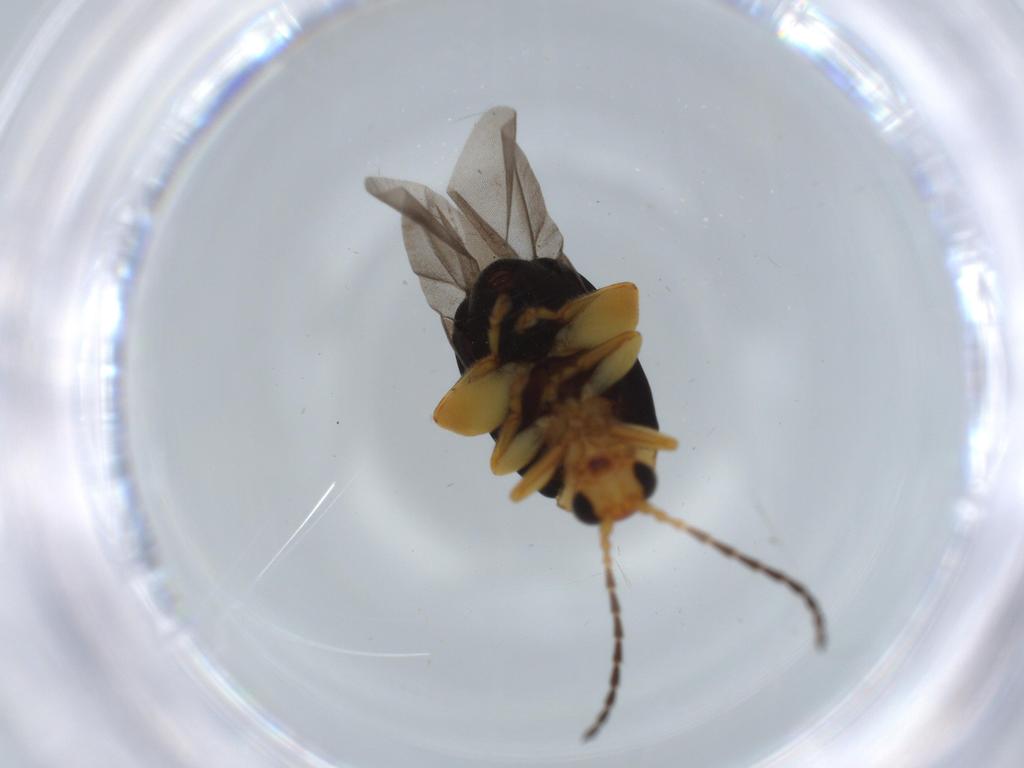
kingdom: Animalia
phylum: Arthropoda
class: Insecta
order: Coleoptera
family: Chrysomelidae
